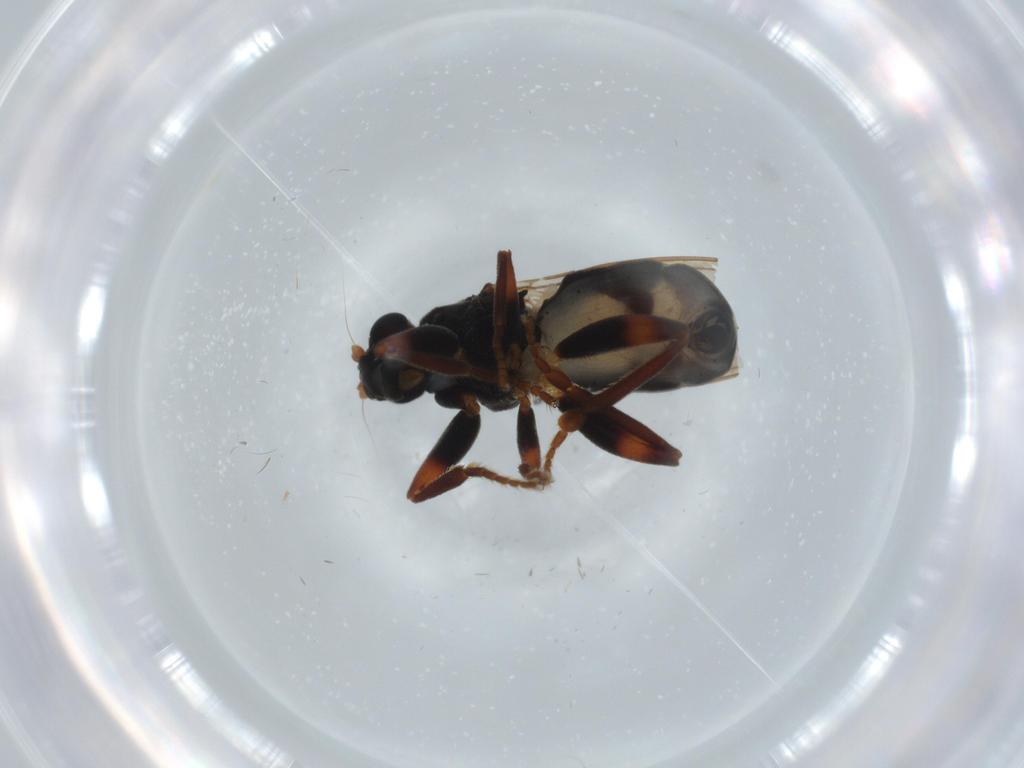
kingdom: Animalia
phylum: Arthropoda
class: Insecta
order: Diptera
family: Sphaeroceridae
